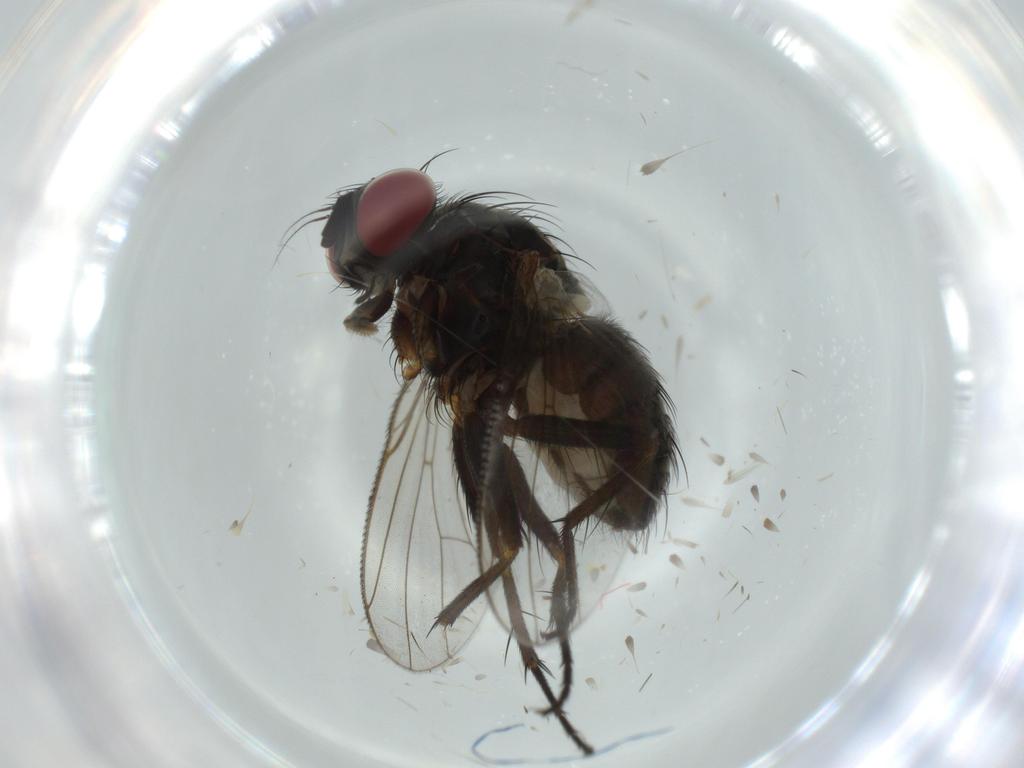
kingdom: Animalia
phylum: Arthropoda
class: Insecta
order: Diptera
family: Muscidae
